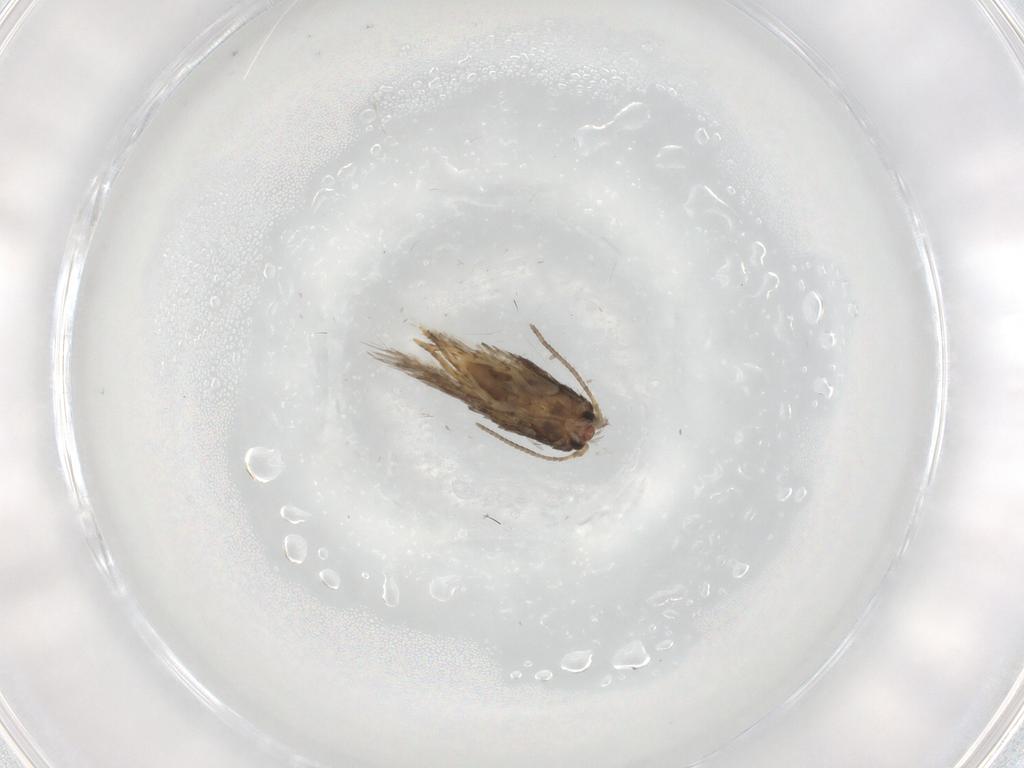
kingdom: Animalia
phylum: Arthropoda
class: Insecta
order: Lepidoptera
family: Nepticulidae
